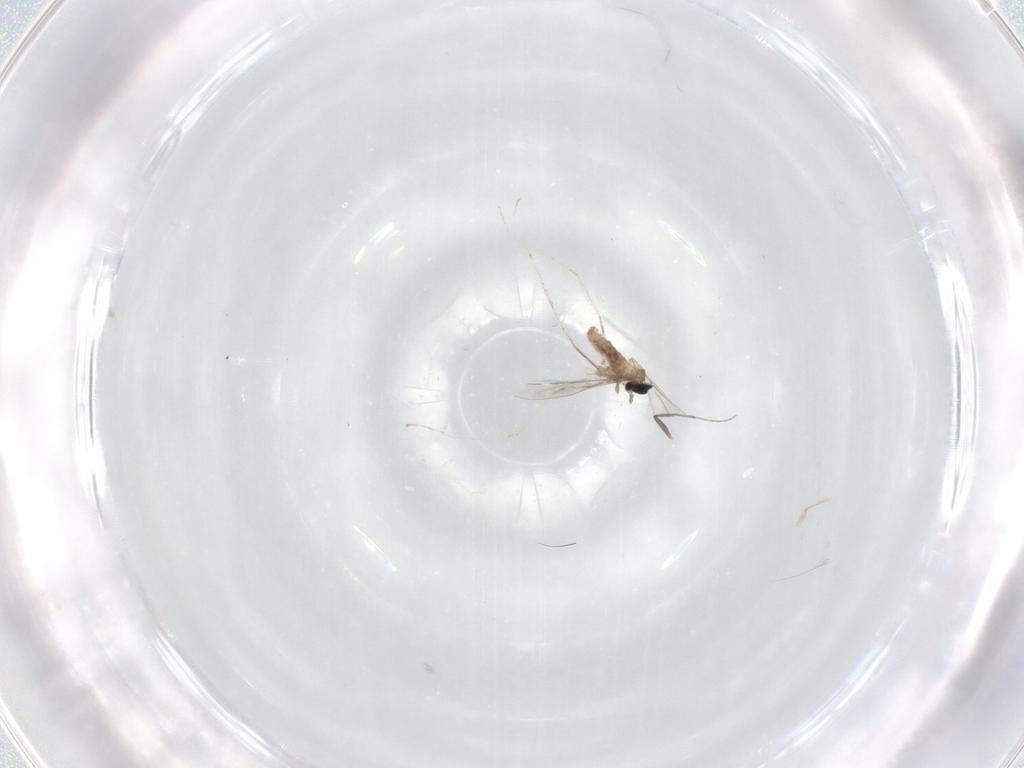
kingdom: Animalia
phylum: Arthropoda
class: Insecta
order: Diptera
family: Cecidomyiidae
